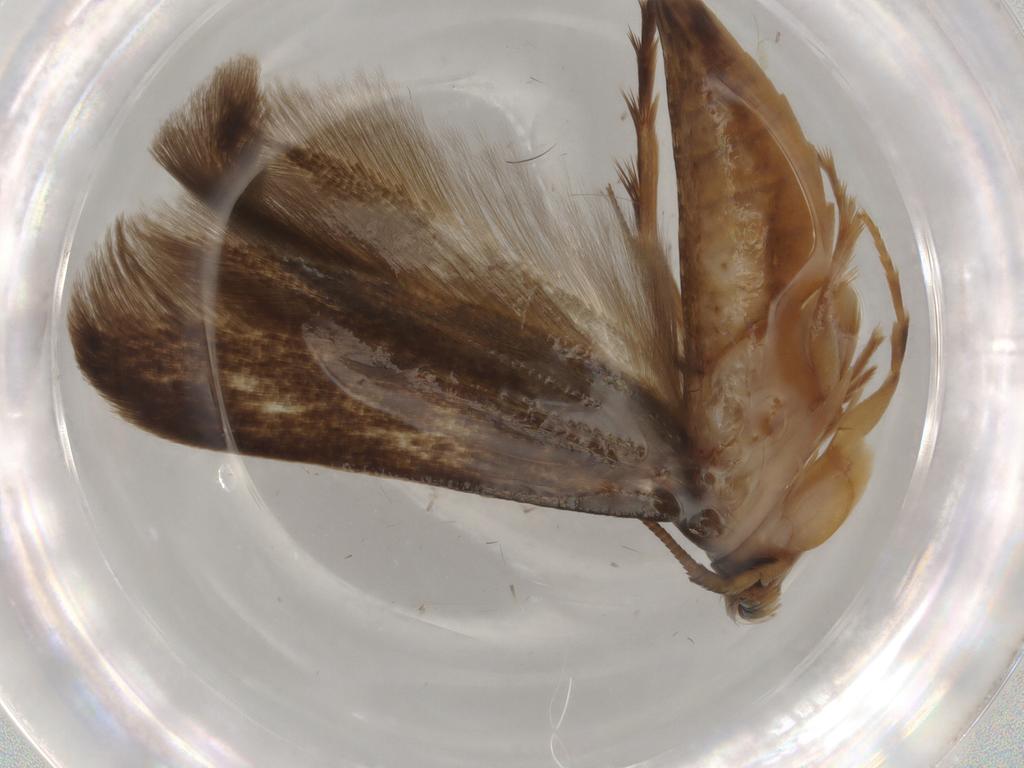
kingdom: Animalia
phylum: Arthropoda
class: Insecta
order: Lepidoptera
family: Tineidae
